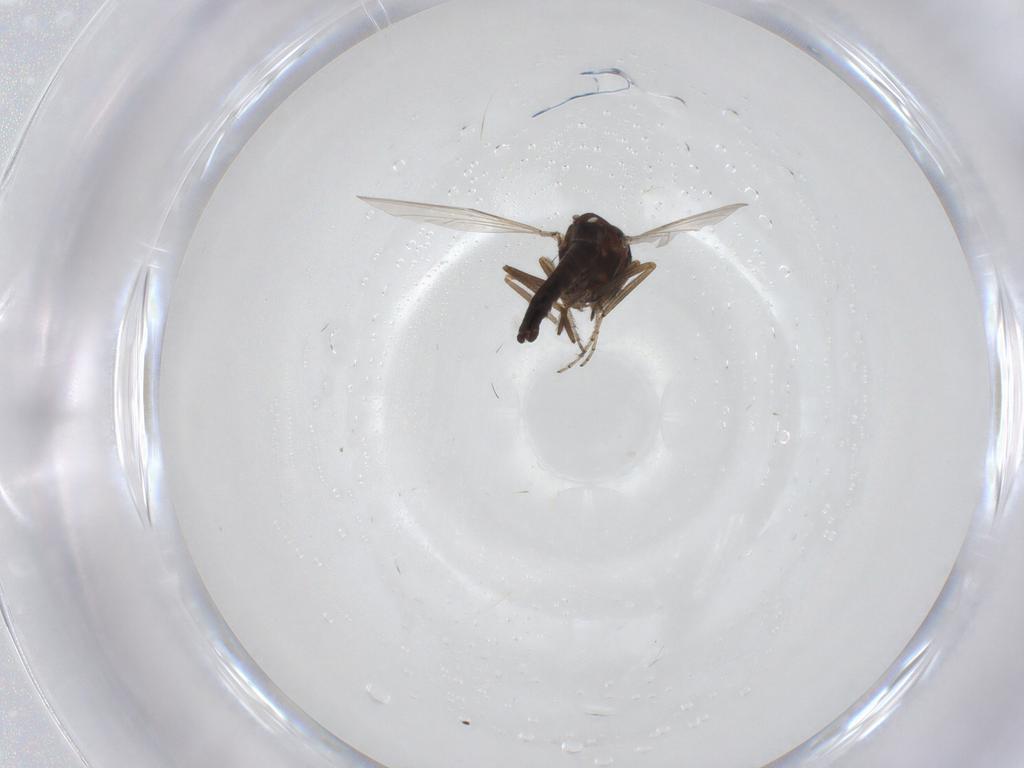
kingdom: Animalia
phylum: Arthropoda
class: Insecta
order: Diptera
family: Ceratopogonidae
